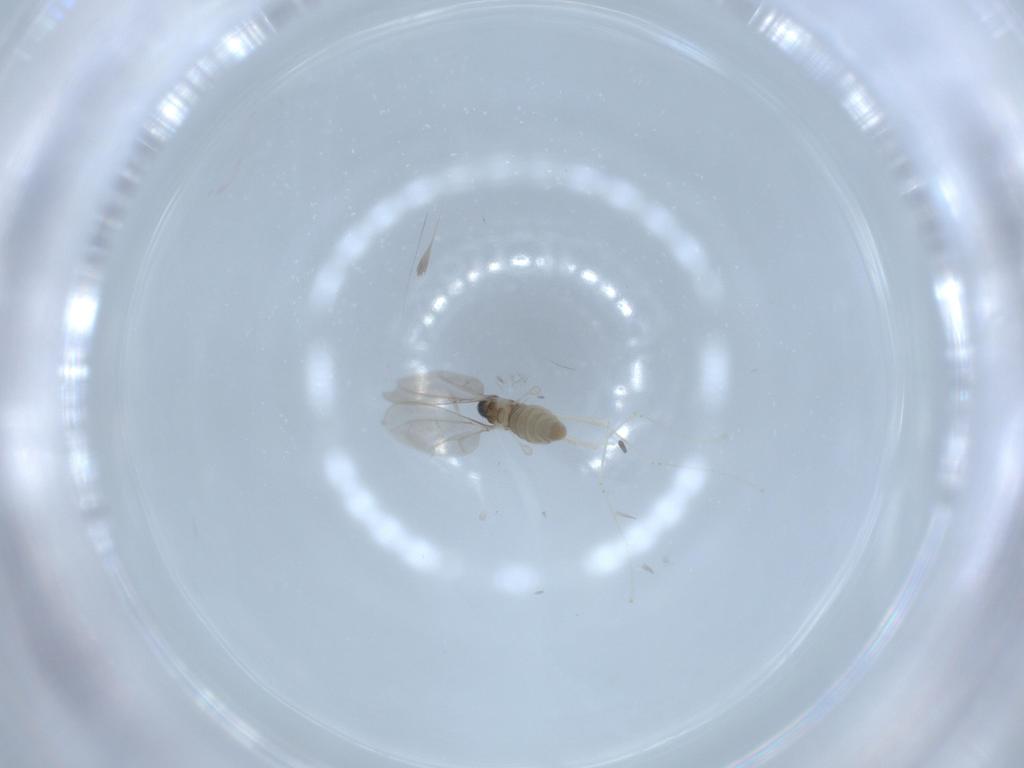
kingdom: Animalia
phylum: Arthropoda
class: Insecta
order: Diptera
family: Cecidomyiidae
